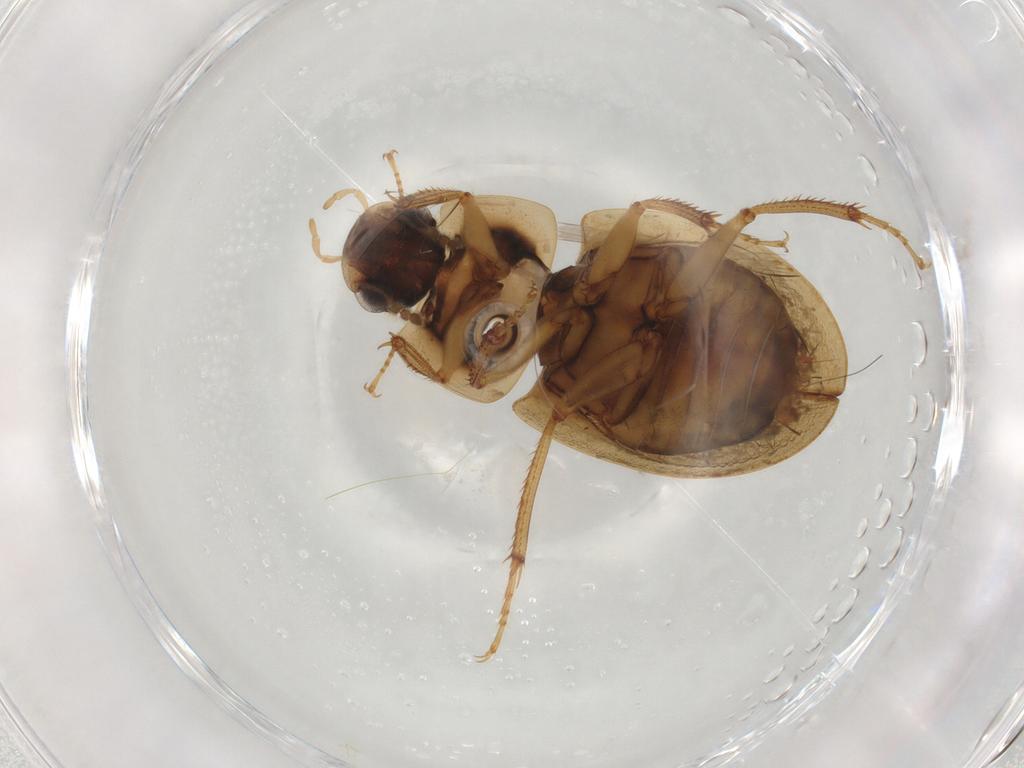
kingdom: Animalia
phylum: Arthropoda
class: Insecta
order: Coleoptera
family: Hydrophilidae
